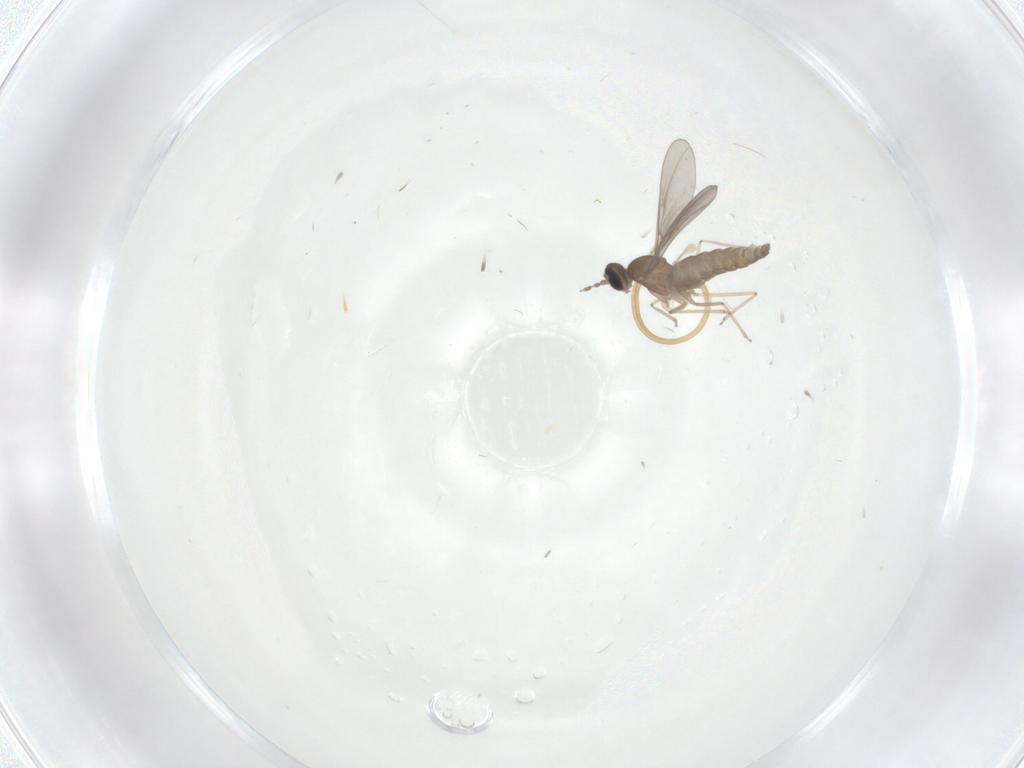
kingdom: Animalia
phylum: Arthropoda
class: Insecta
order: Diptera
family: Cecidomyiidae
